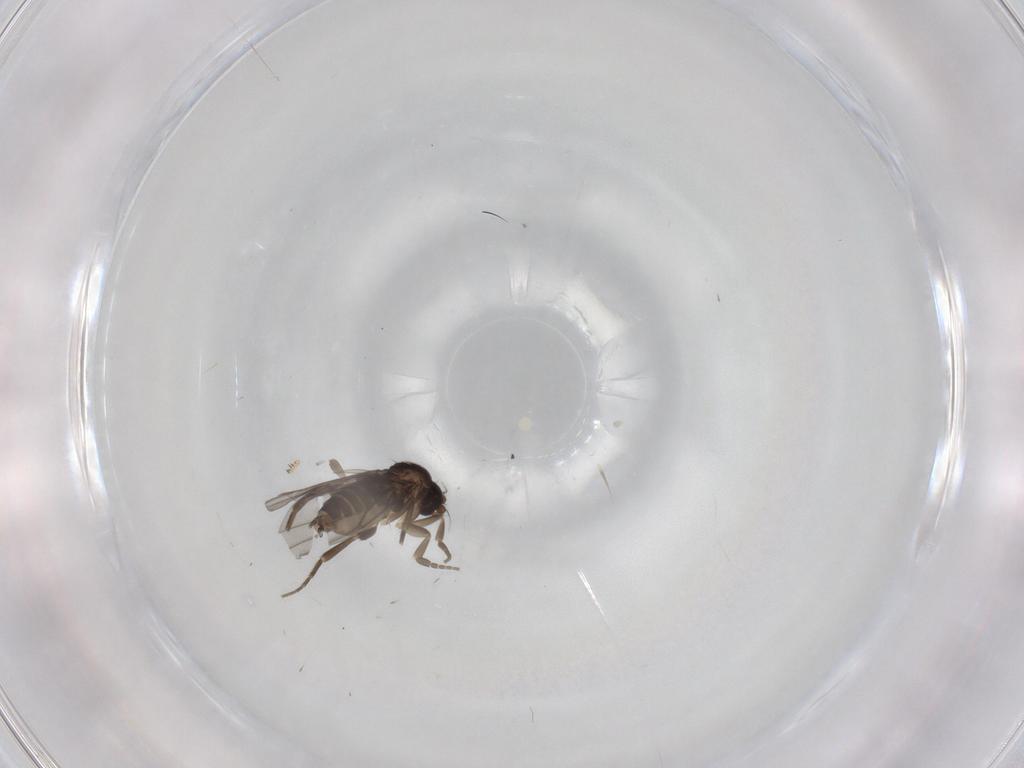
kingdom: Animalia
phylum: Arthropoda
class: Insecta
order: Diptera
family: Phoridae
